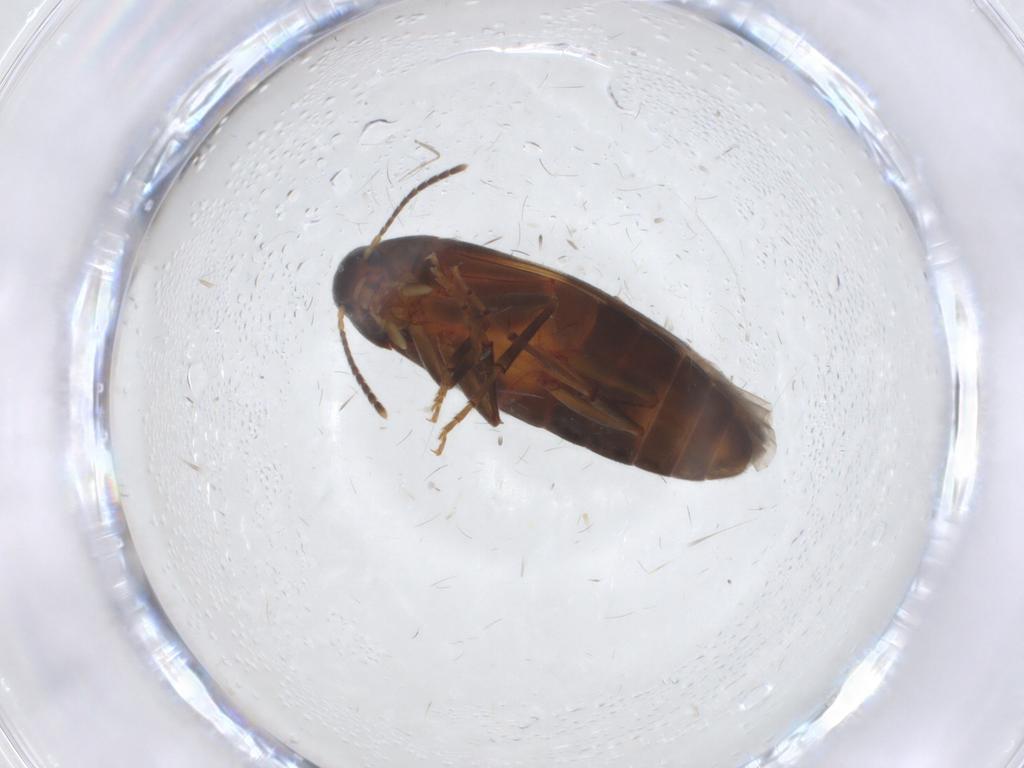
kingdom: Animalia
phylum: Arthropoda
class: Insecta
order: Coleoptera
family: Melandryidae
